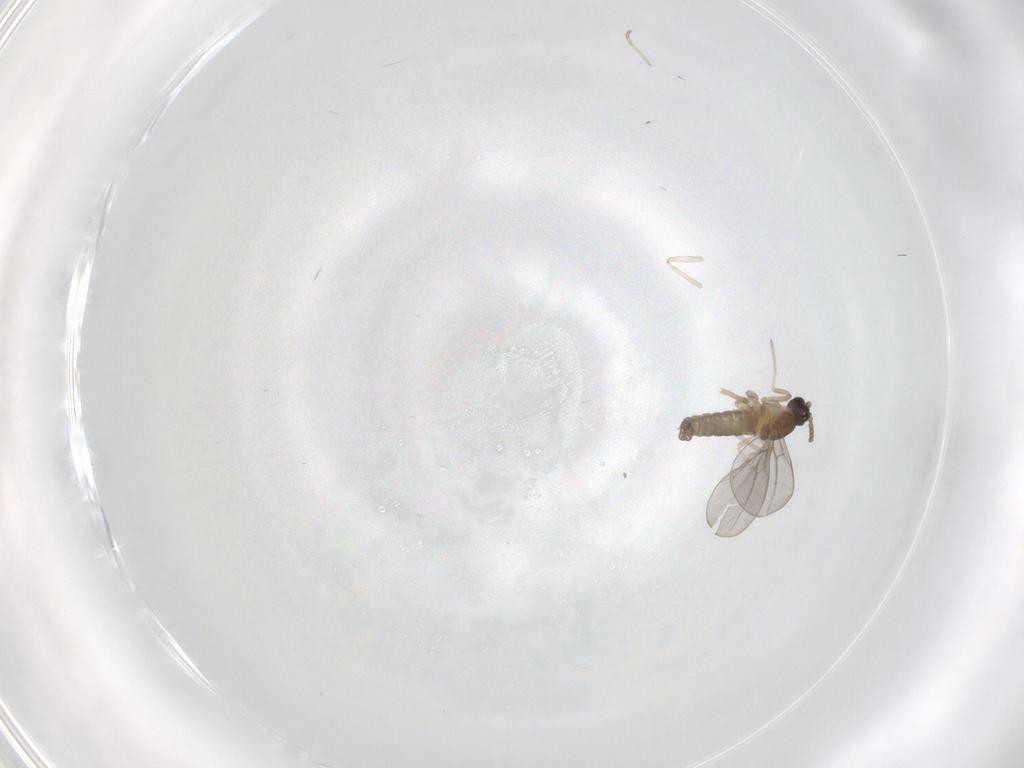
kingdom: Animalia
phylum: Arthropoda
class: Insecta
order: Diptera
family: Cecidomyiidae
